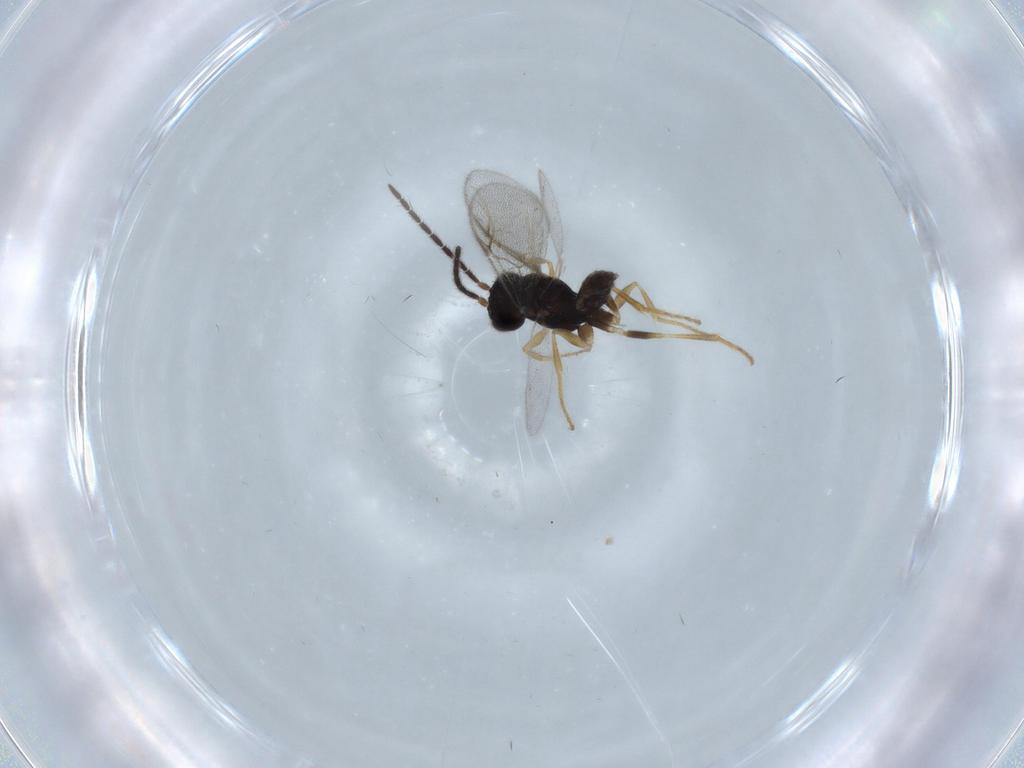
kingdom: Animalia
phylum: Arthropoda
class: Insecta
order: Hymenoptera
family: Dryinidae
